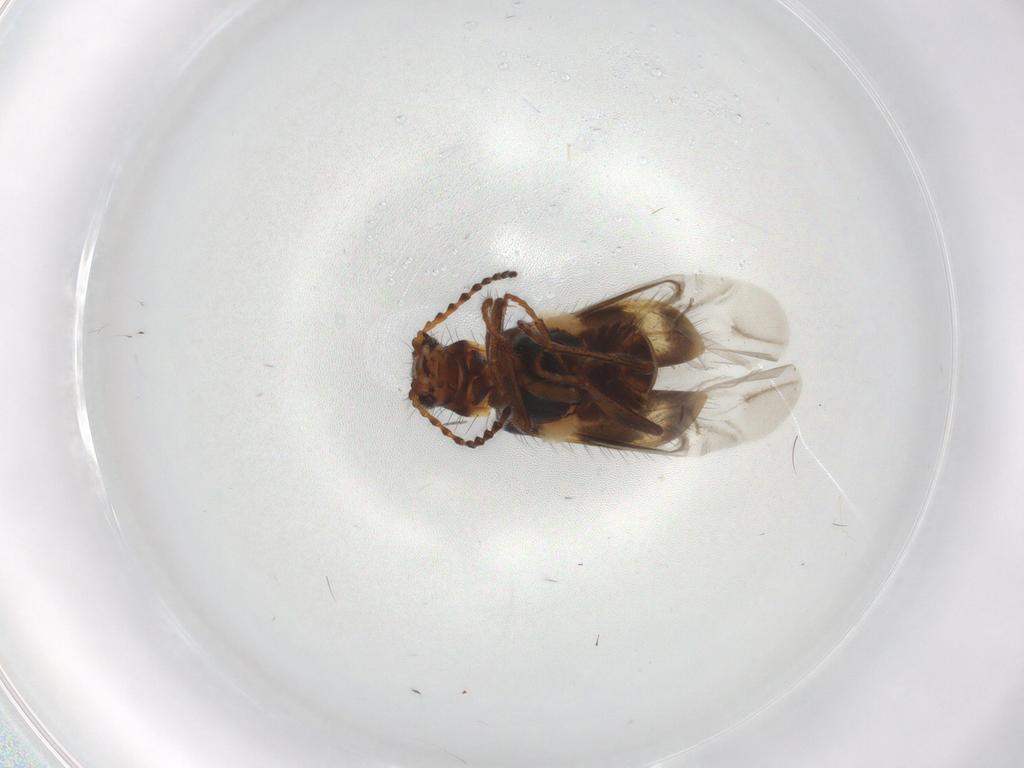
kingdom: Animalia
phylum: Arthropoda
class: Insecta
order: Coleoptera
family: Melyridae
